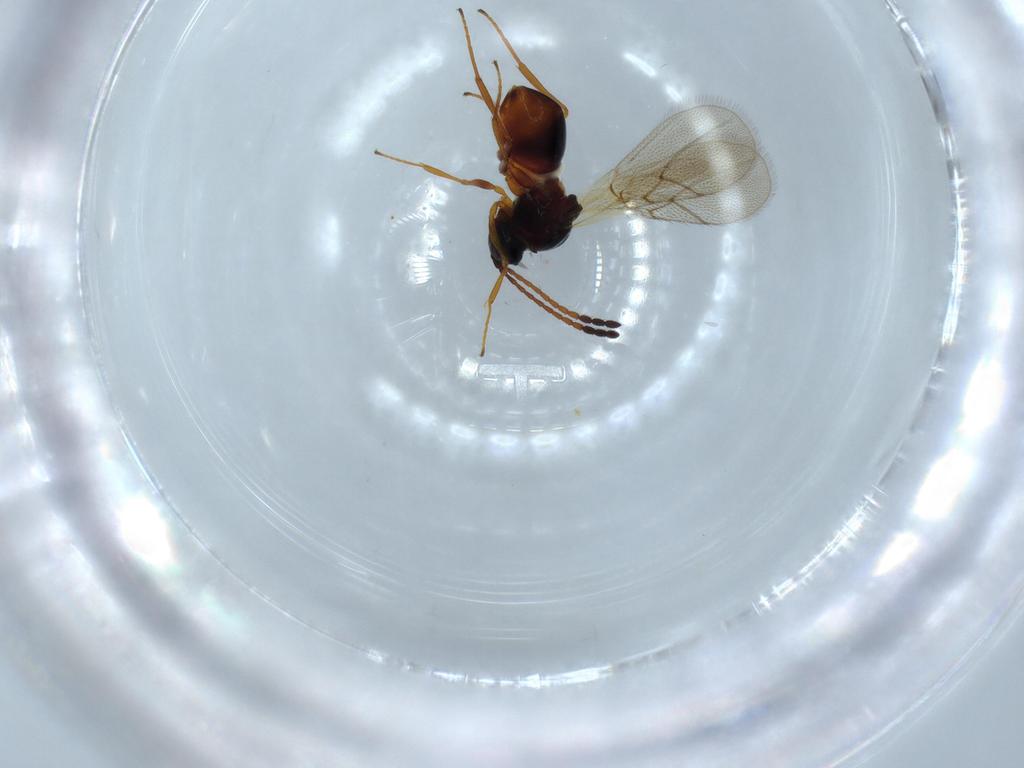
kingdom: Animalia
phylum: Arthropoda
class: Insecta
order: Hymenoptera
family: Figitidae
